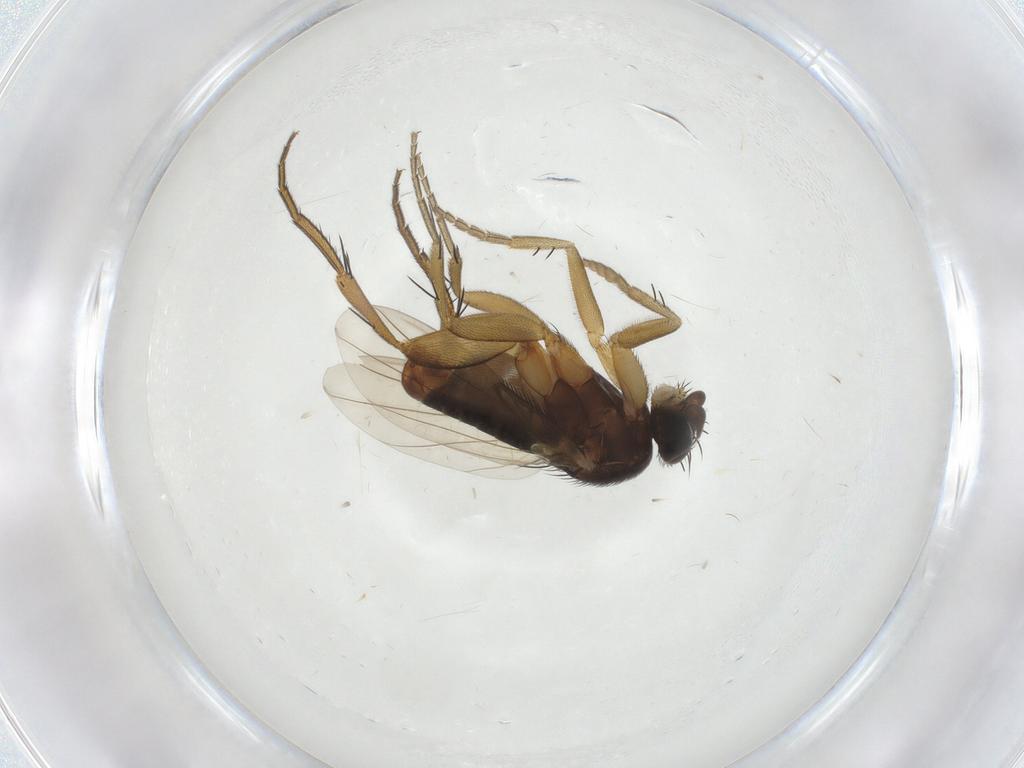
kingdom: Animalia
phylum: Arthropoda
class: Insecta
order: Diptera
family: Phoridae
